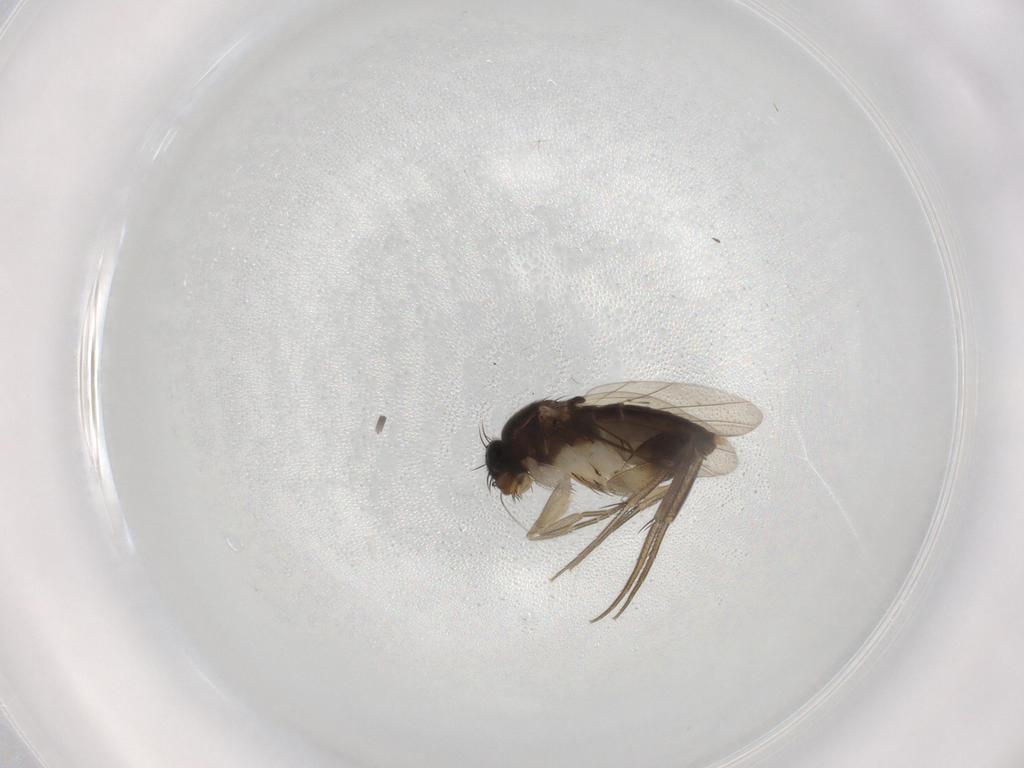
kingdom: Animalia
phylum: Arthropoda
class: Insecta
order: Diptera
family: Phoridae
